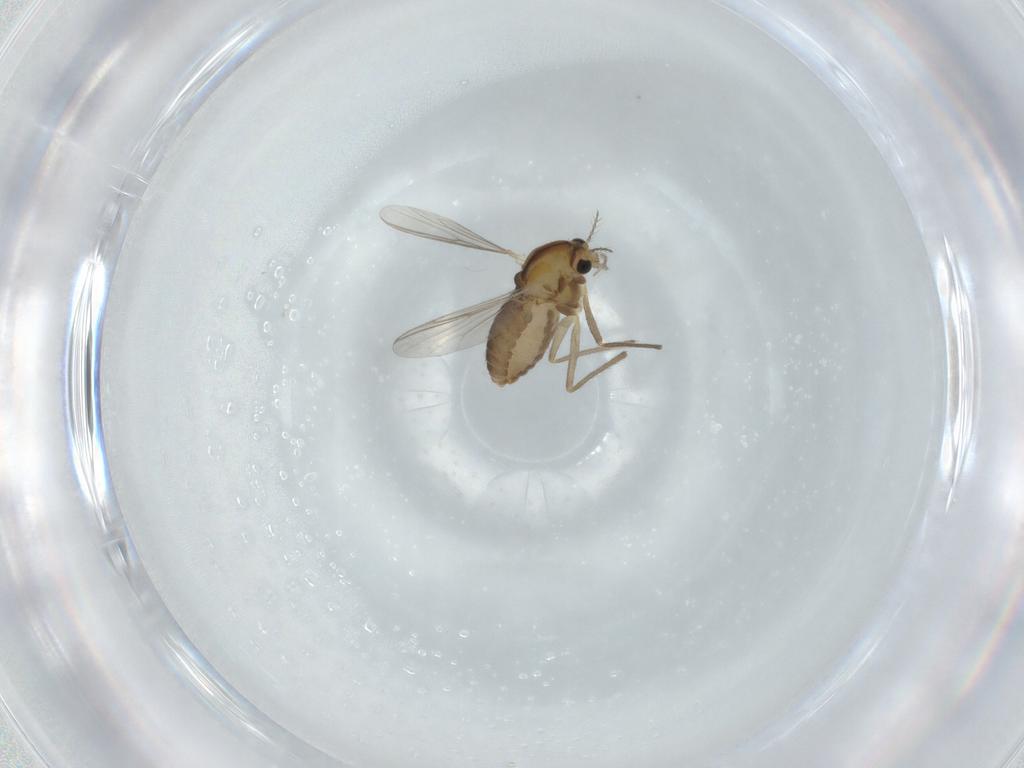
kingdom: Animalia
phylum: Arthropoda
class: Insecta
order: Diptera
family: Chironomidae
